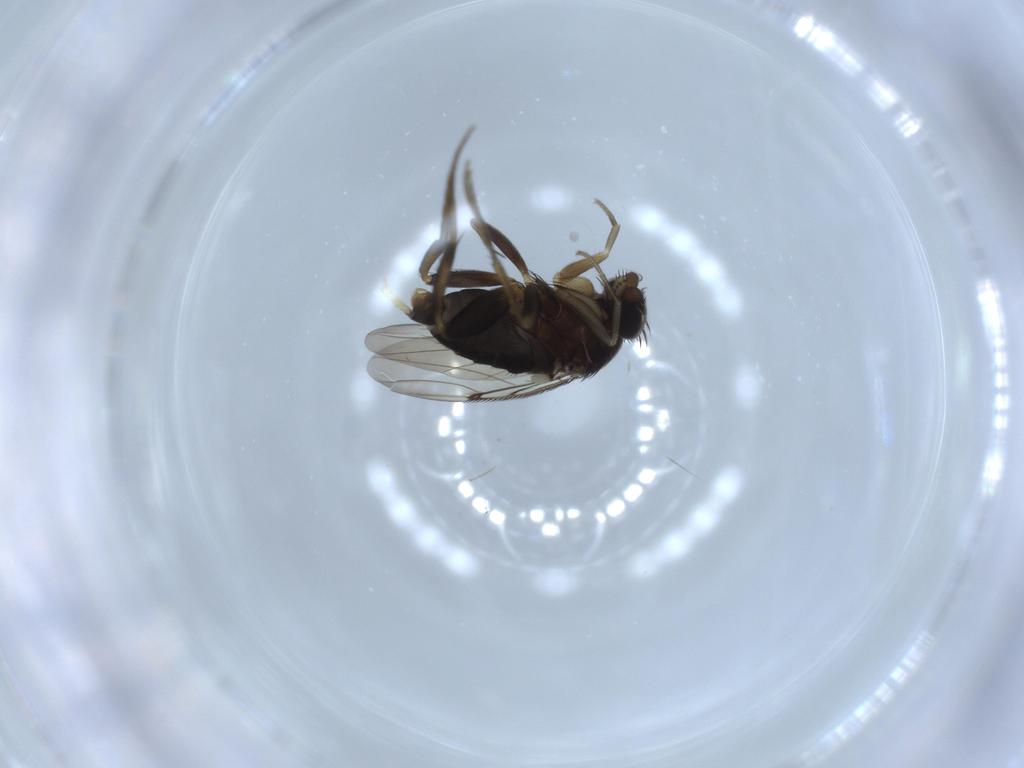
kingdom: Animalia
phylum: Arthropoda
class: Insecta
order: Diptera
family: Phoridae
